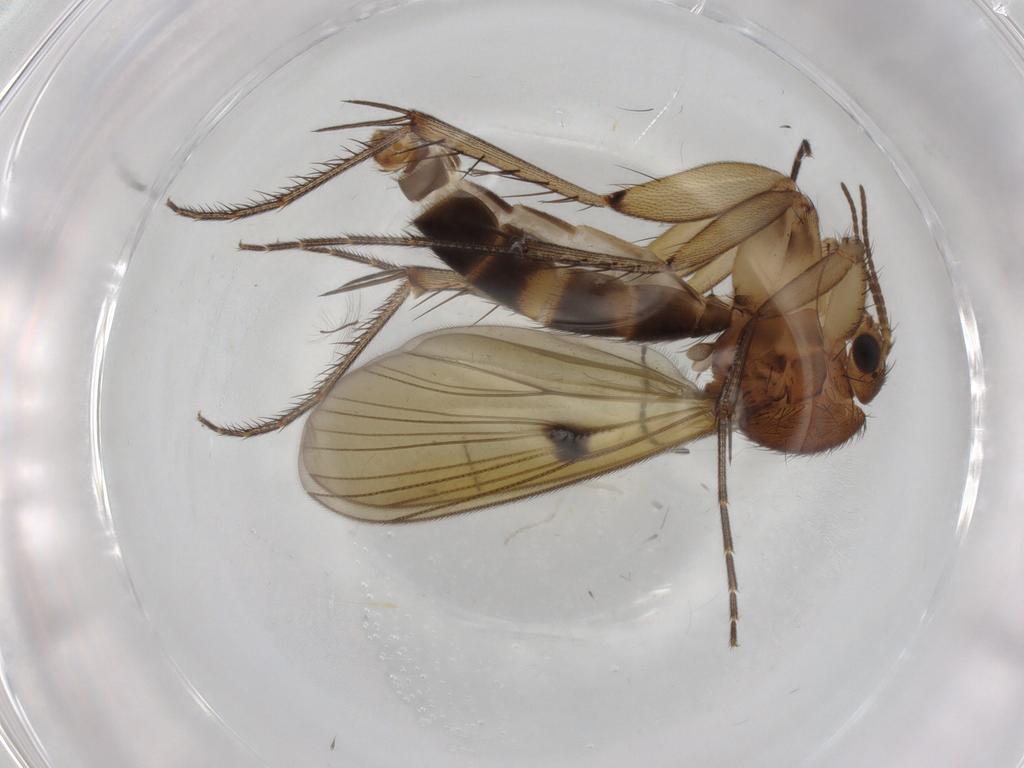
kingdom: Animalia
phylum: Arthropoda
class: Insecta
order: Diptera
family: Mycetophilidae
